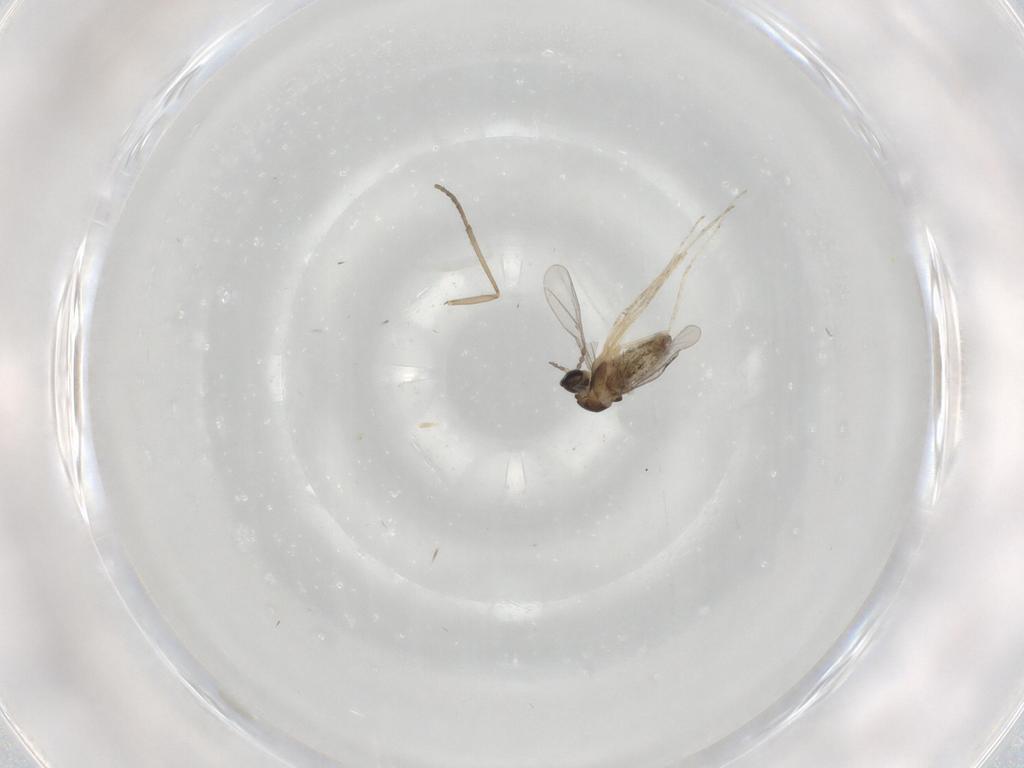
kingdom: Animalia
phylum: Arthropoda
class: Insecta
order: Diptera
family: Cecidomyiidae
